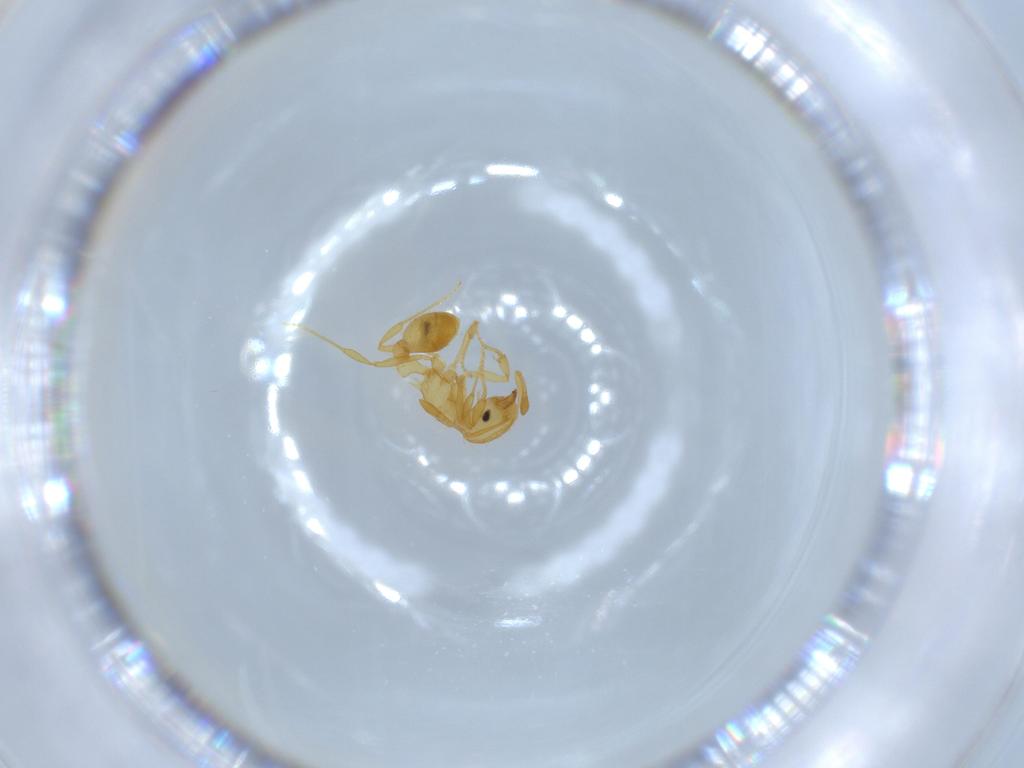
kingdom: Animalia
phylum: Arthropoda
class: Insecta
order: Hymenoptera
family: Formicidae
